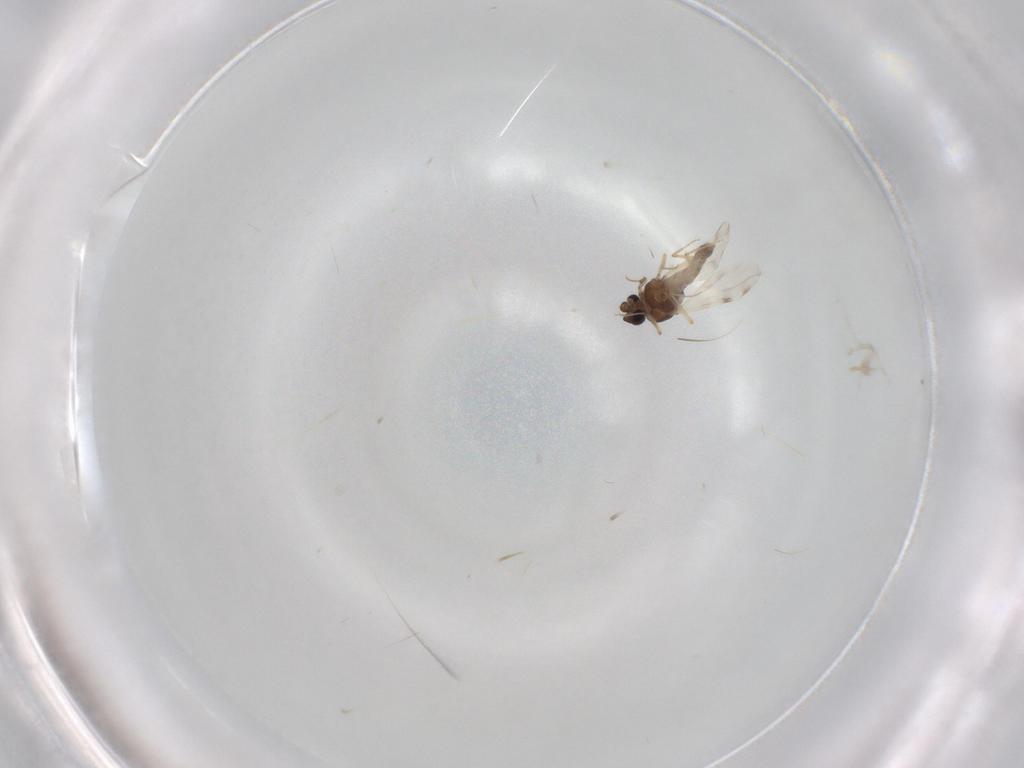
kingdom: Animalia
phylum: Arthropoda
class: Insecta
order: Diptera
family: Ceratopogonidae
